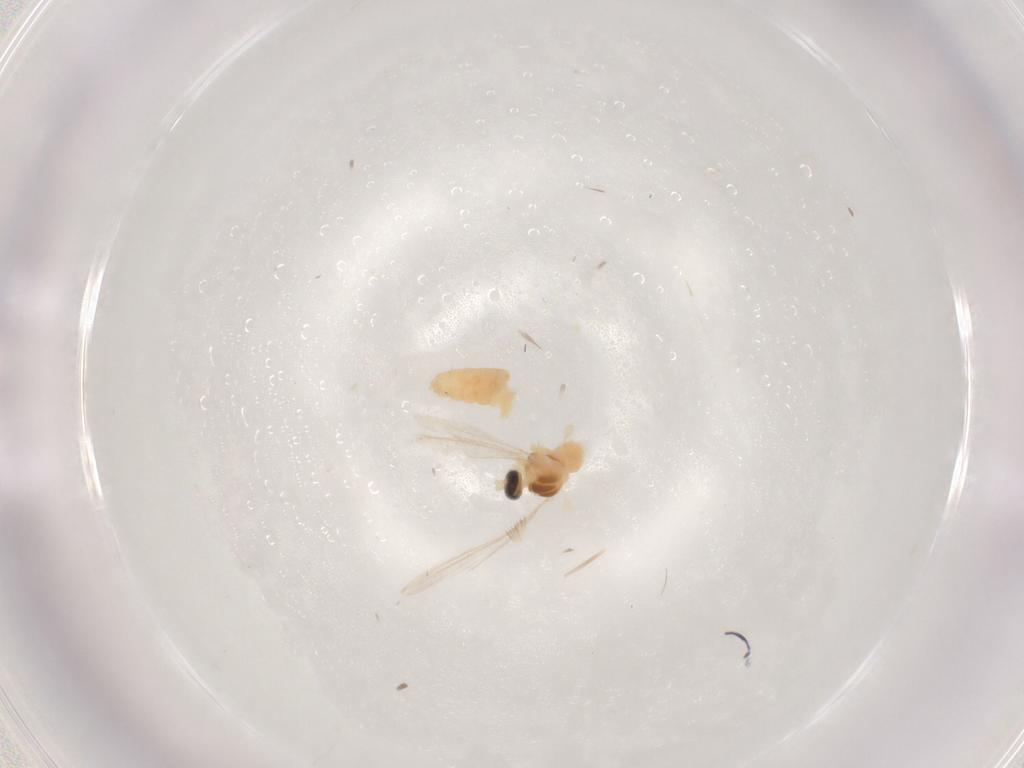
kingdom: Animalia
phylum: Arthropoda
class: Insecta
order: Diptera
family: Cecidomyiidae
